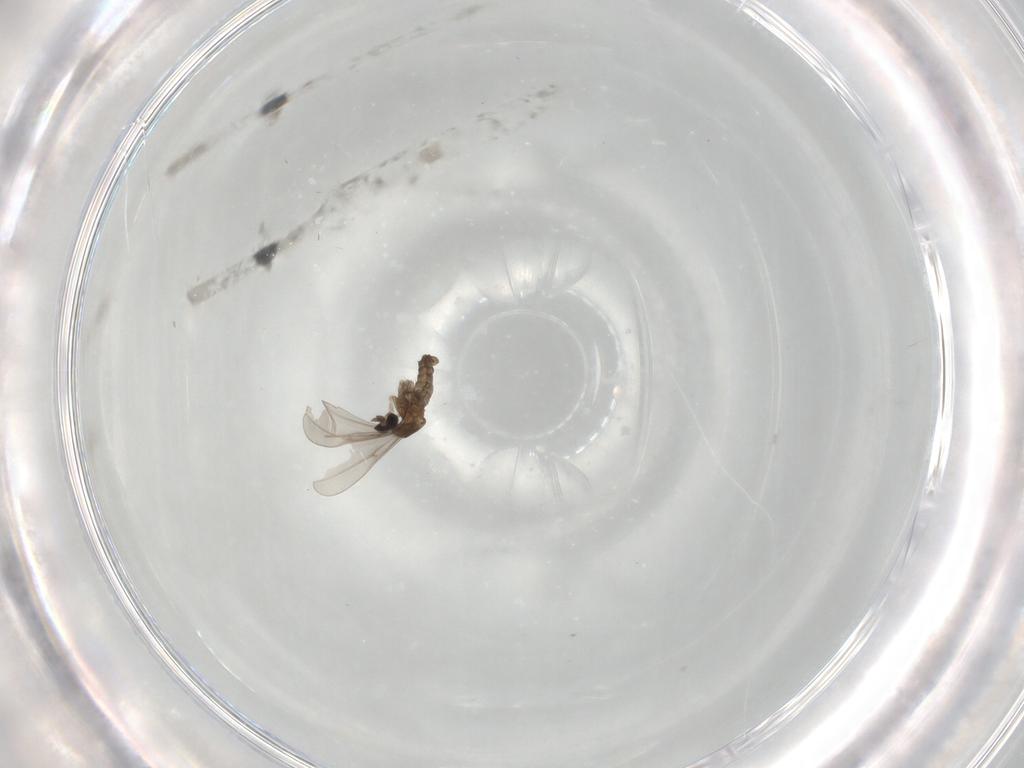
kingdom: Animalia
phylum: Arthropoda
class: Insecta
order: Diptera
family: Cecidomyiidae
